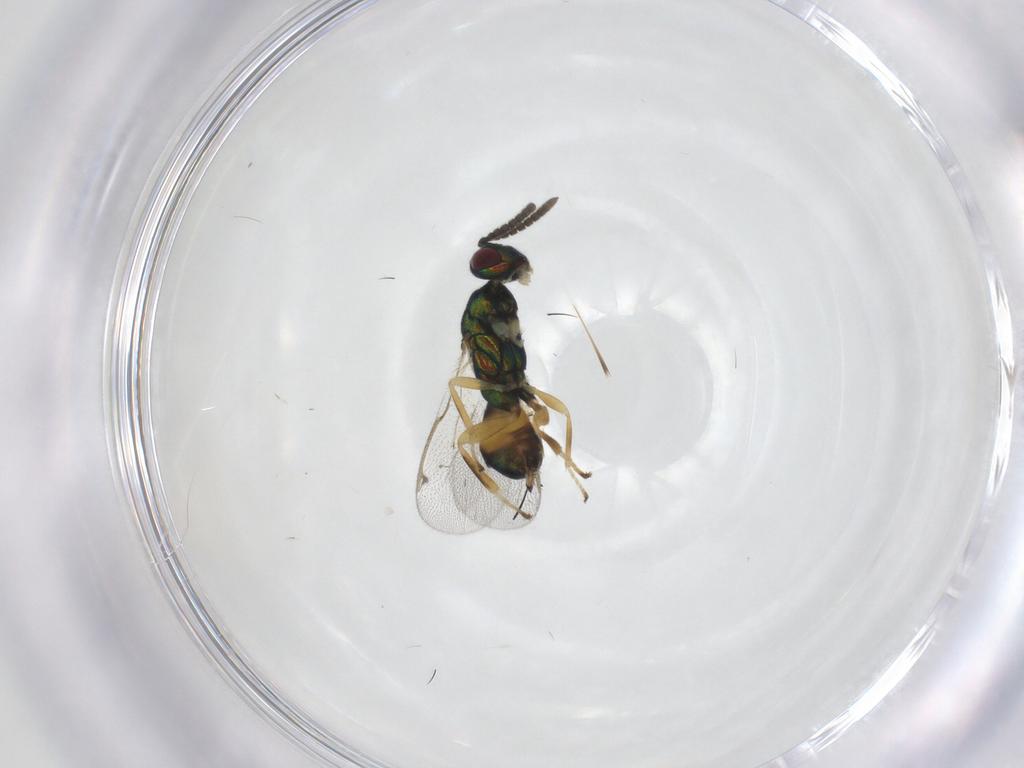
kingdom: Animalia
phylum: Arthropoda
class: Insecta
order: Hymenoptera
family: Torymidae
